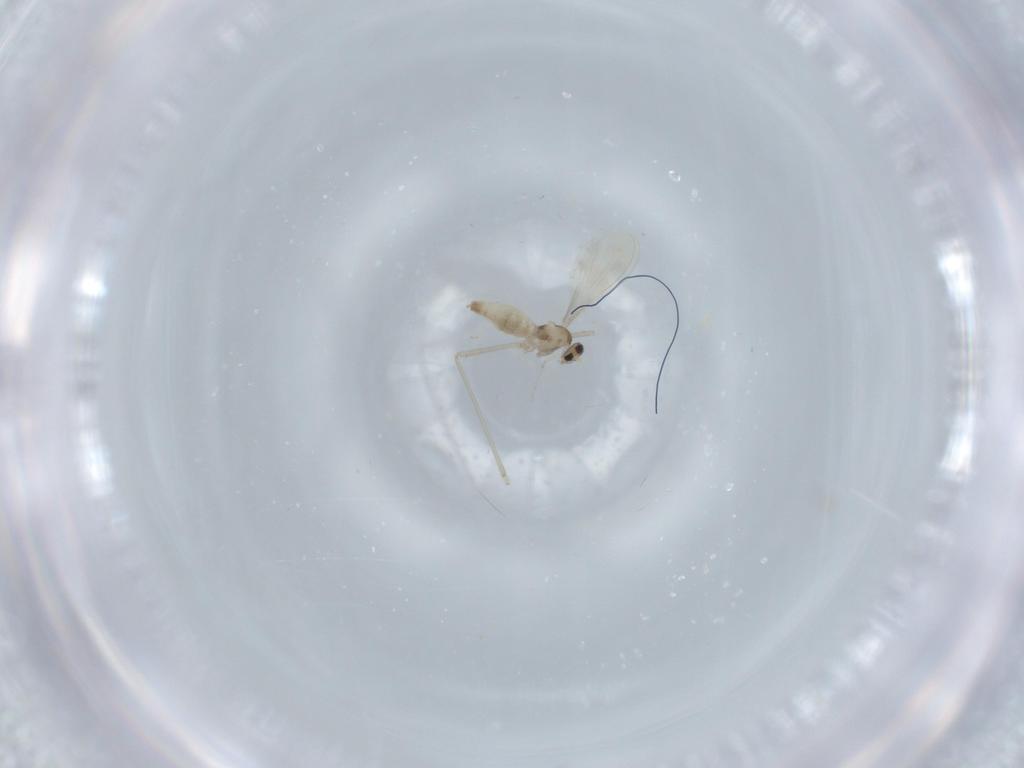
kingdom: Animalia
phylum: Arthropoda
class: Insecta
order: Diptera
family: Cecidomyiidae
